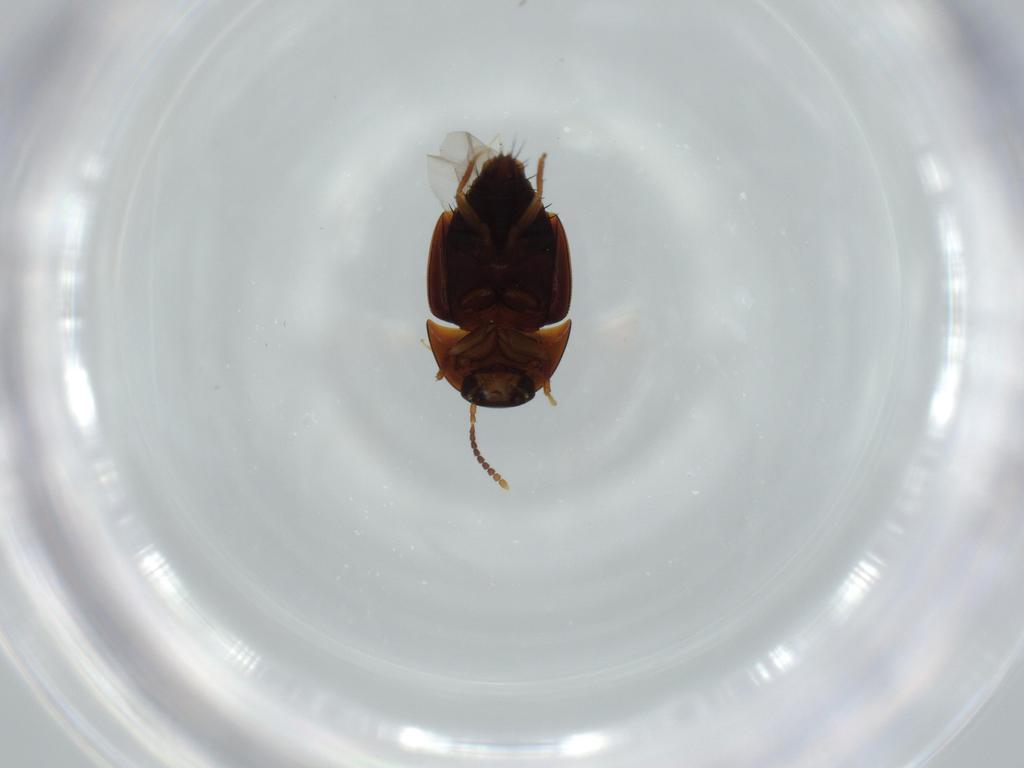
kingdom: Animalia
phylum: Arthropoda
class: Insecta
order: Coleoptera
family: Staphylinidae
